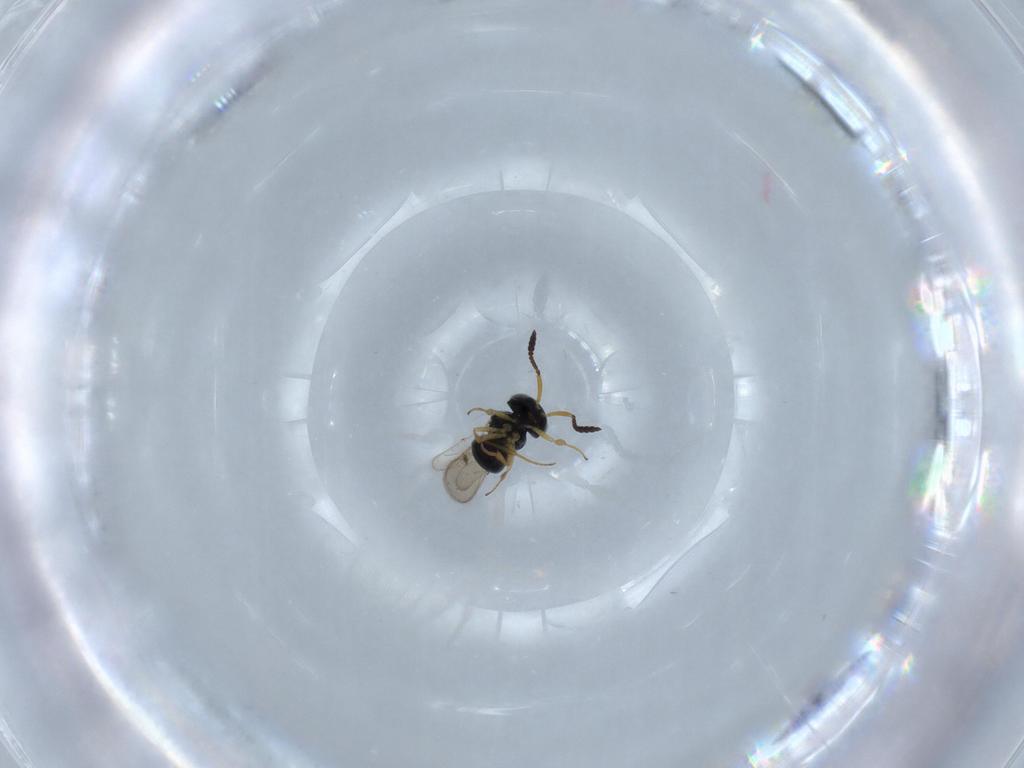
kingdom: Animalia
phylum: Arthropoda
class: Insecta
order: Hymenoptera
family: Scelionidae
